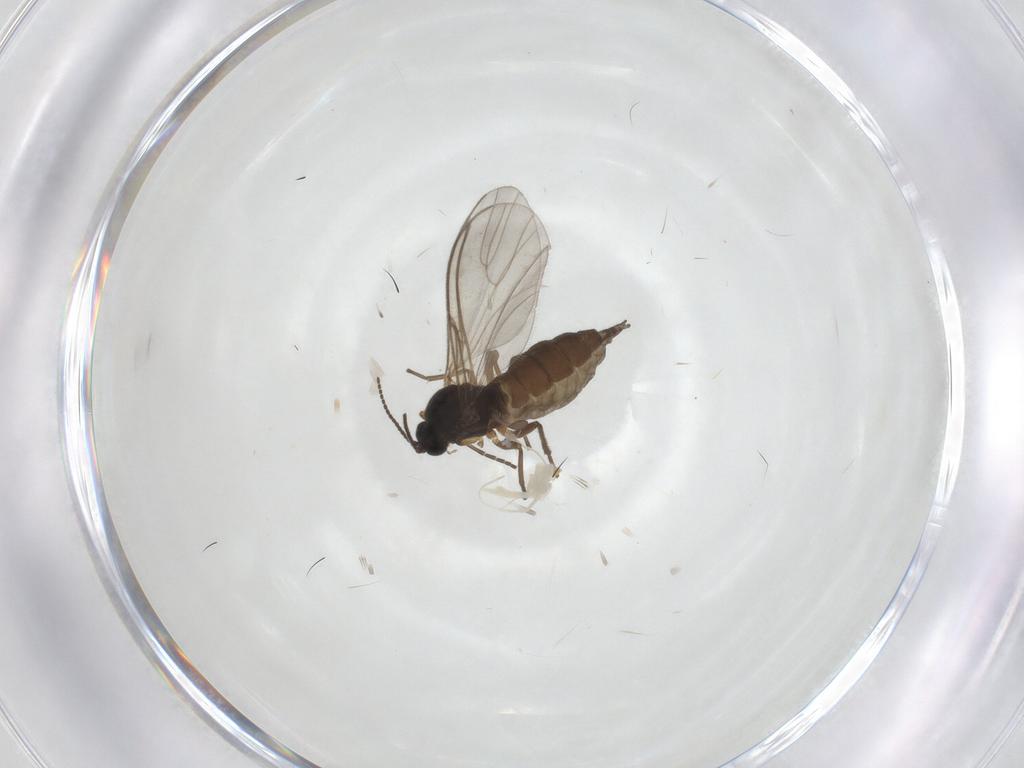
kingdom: Animalia
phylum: Arthropoda
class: Insecta
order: Diptera
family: Sciaridae
